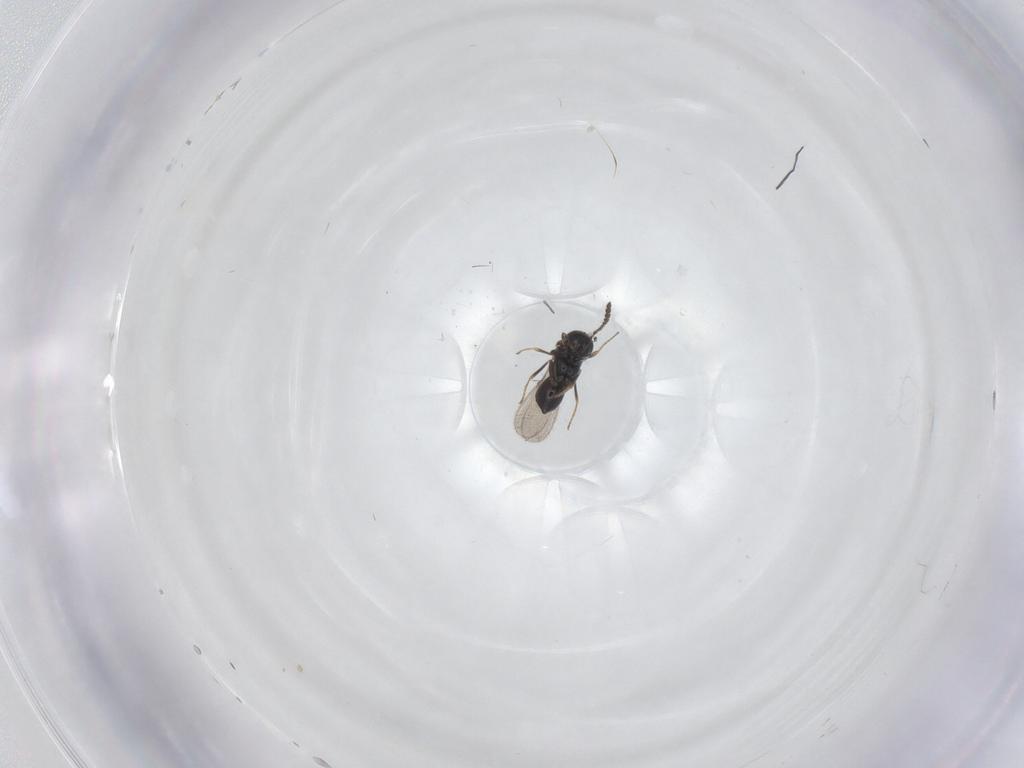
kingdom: Animalia
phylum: Arthropoda
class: Insecta
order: Hymenoptera
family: Scelionidae
